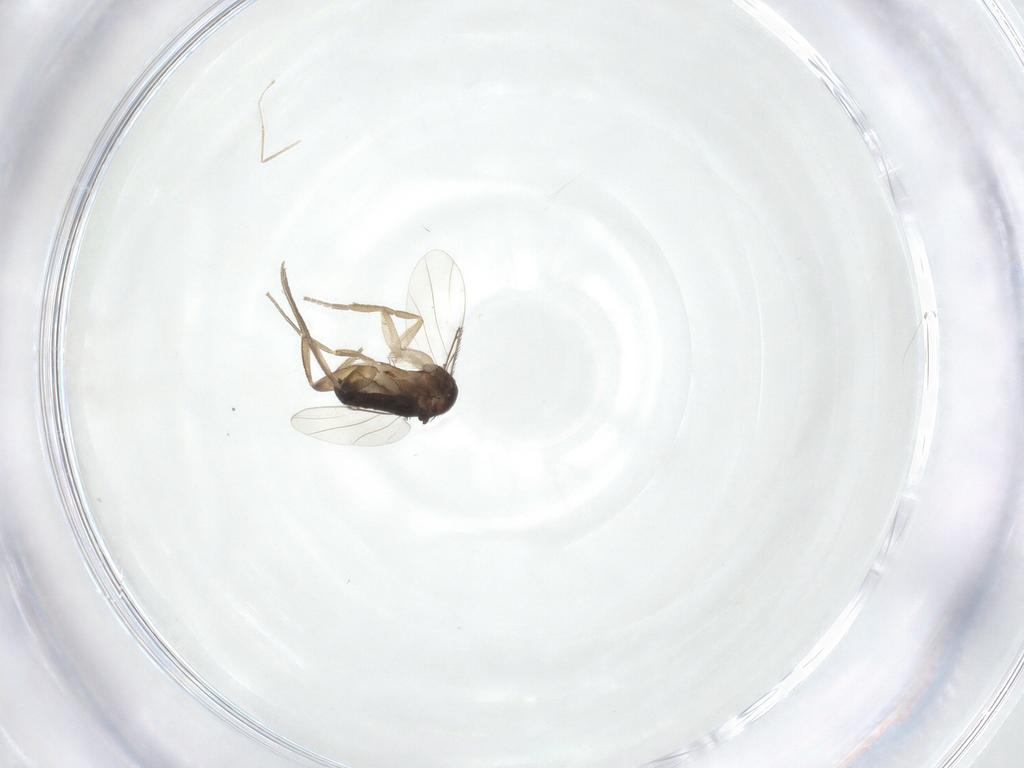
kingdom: Animalia
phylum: Arthropoda
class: Insecta
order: Diptera
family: Phoridae
